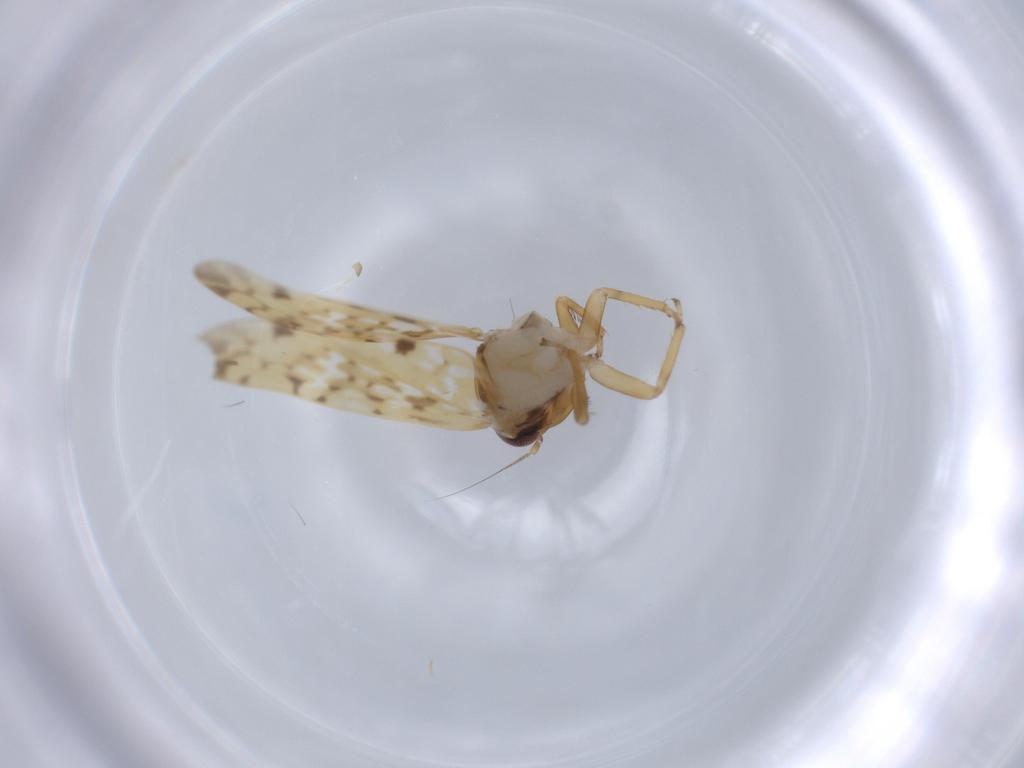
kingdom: Animalia
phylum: Arthropoda
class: Insecta
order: Hemiptera
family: Cicadellidae
